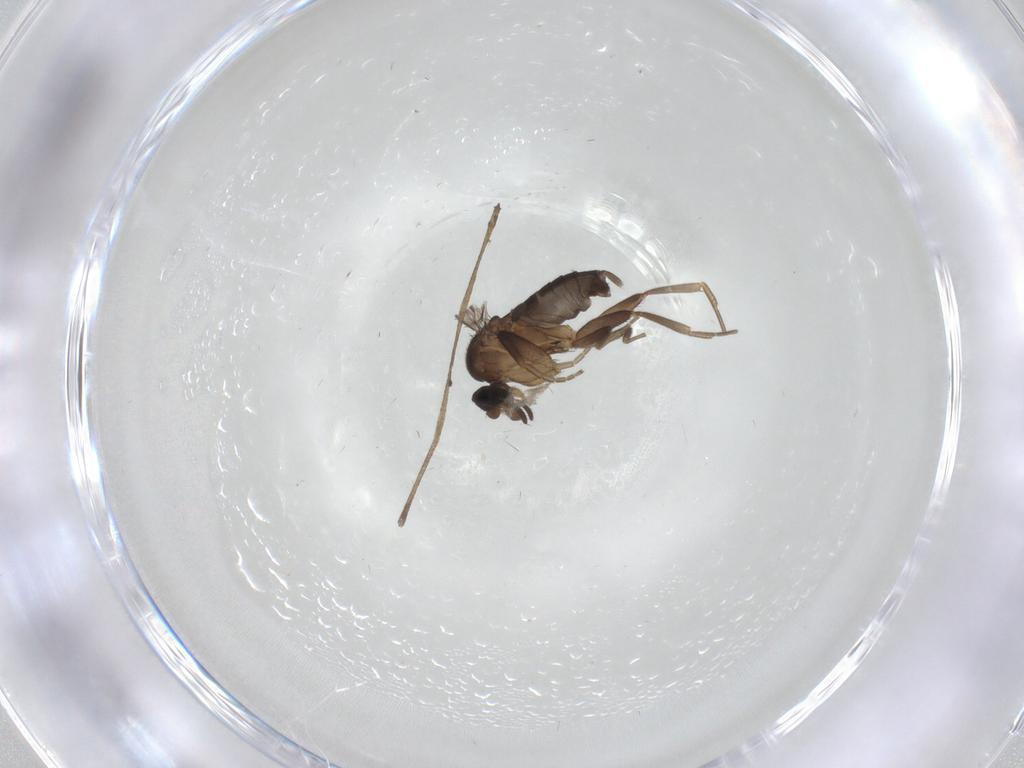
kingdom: Animalia
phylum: Arthropoda
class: Insecta
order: Diptera
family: Phoridae
